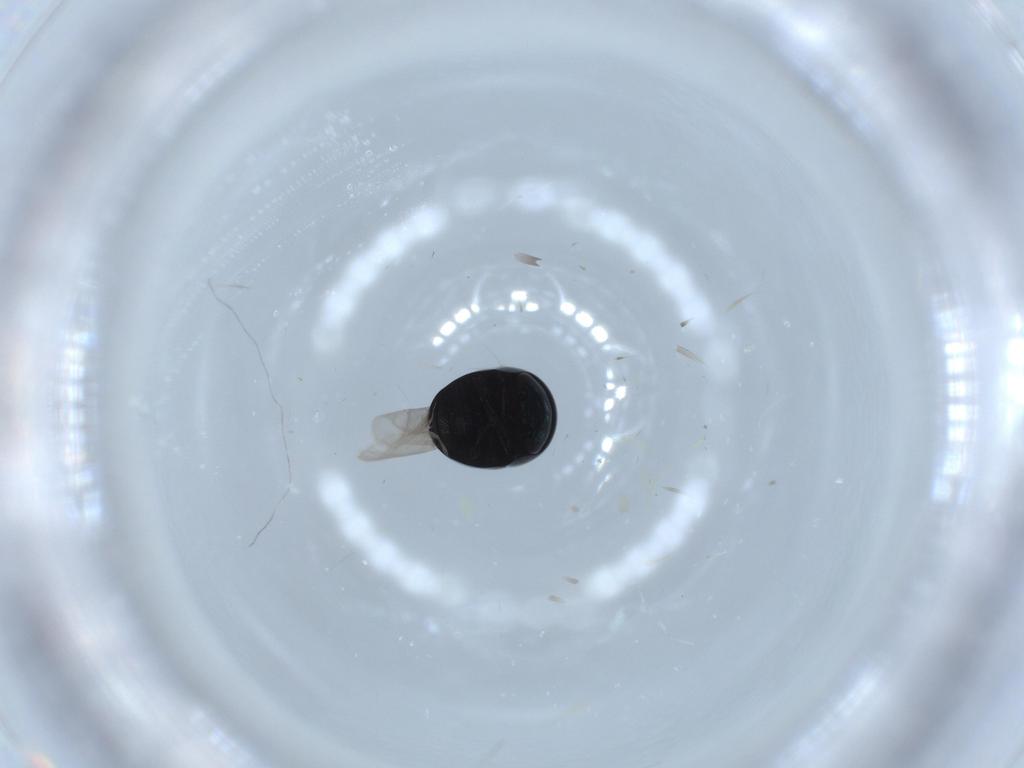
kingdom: Animalia
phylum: Arthropoda
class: Insecta
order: Coleoptera
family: Cybocephalidae
